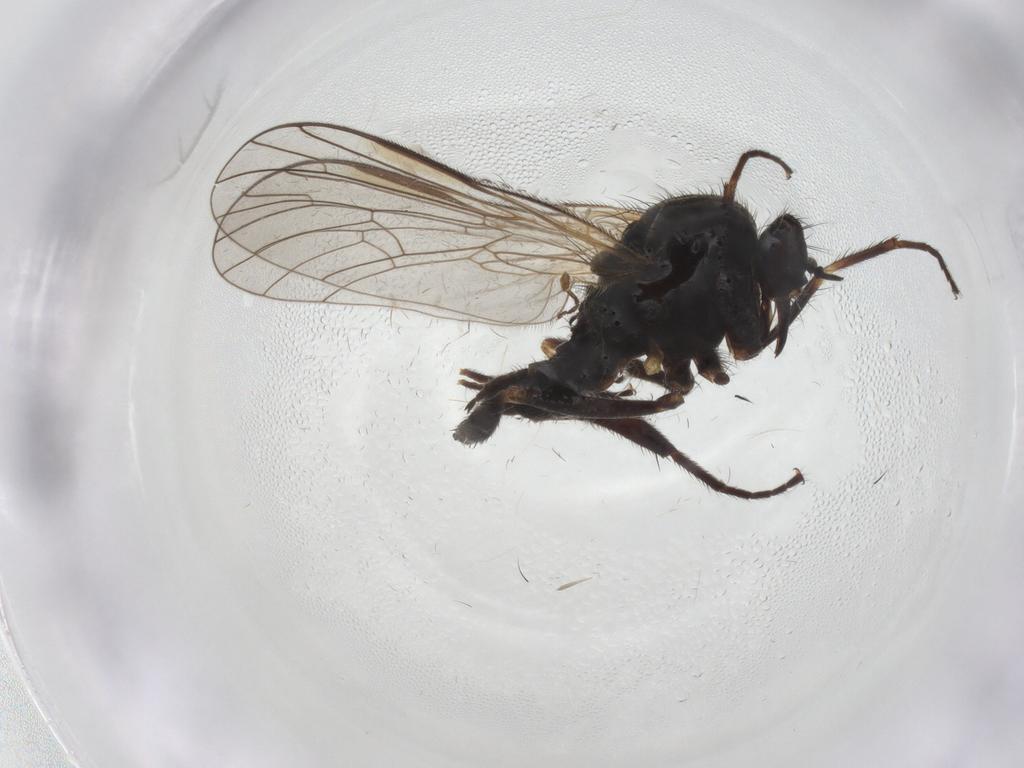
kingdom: Animalia
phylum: Arthropoda
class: Insecta
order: Diptera
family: Empididae
